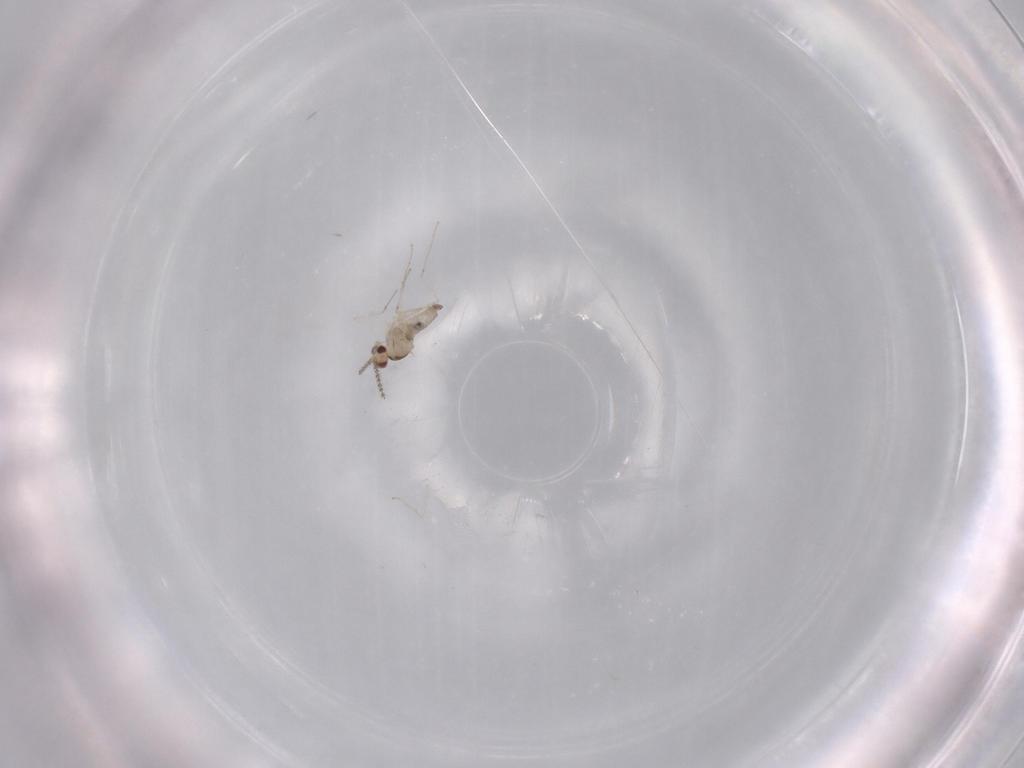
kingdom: Animalia
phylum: Arthropoda
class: Insecta
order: Diptera
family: Cecidomyiidae
